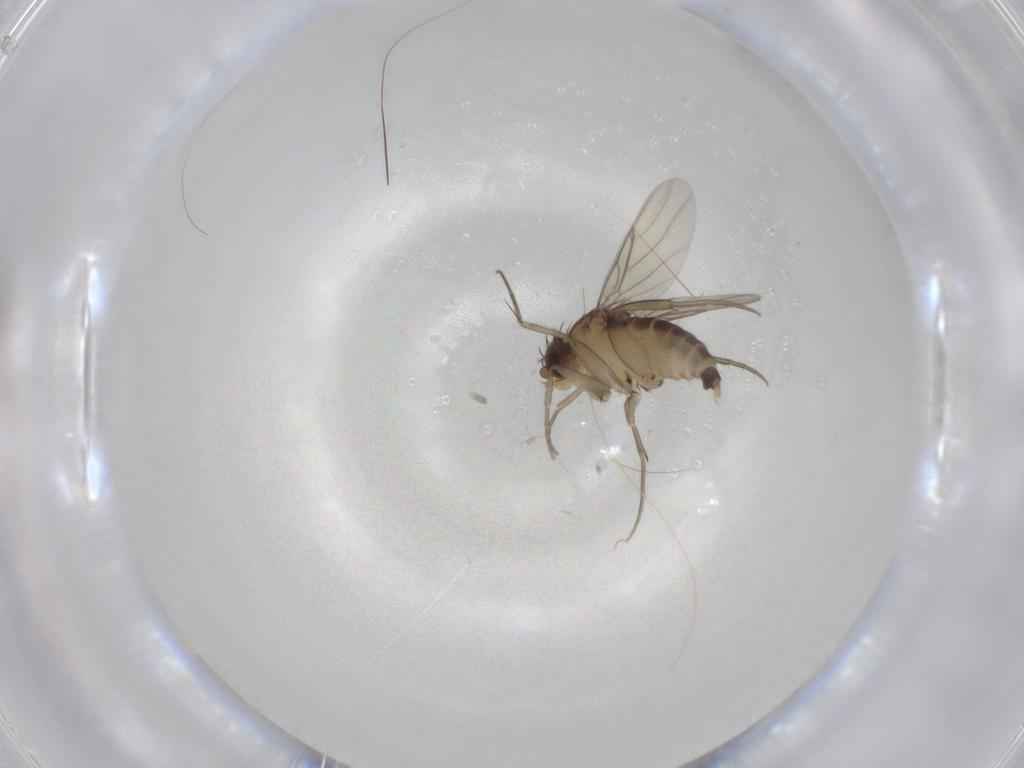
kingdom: Animalia
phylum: Arthropoda
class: Insecta
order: Diptera
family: Phoridae
